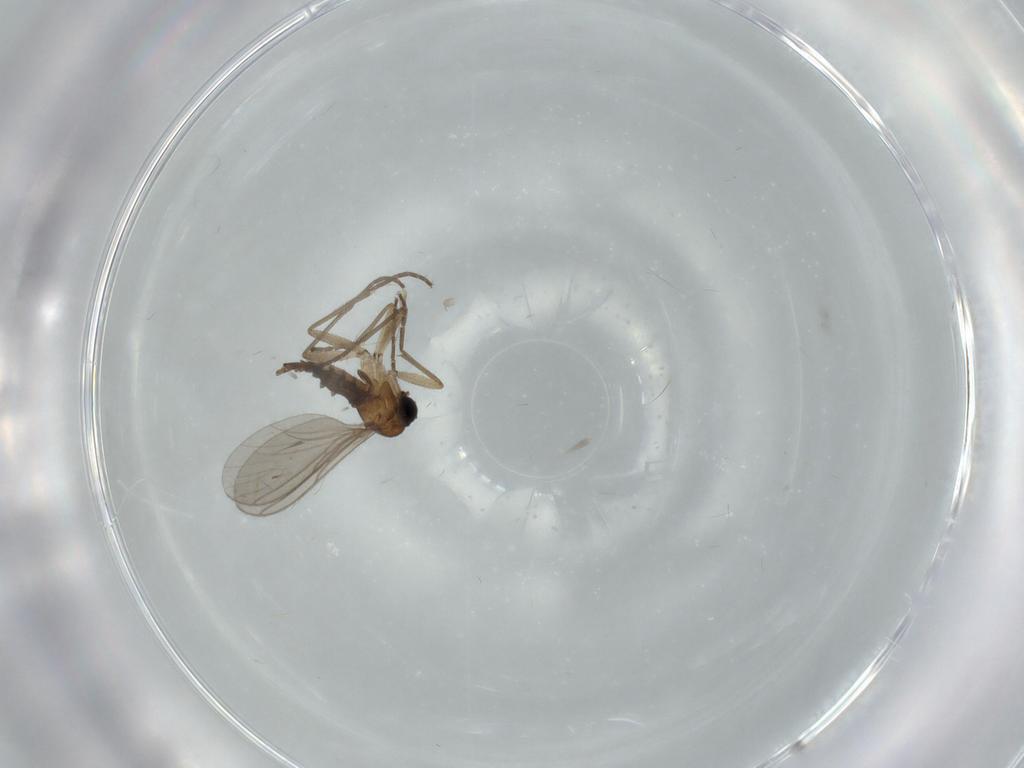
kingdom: Animalia
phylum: Arthropoda
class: Insecta
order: Diptera
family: Sciaridae
